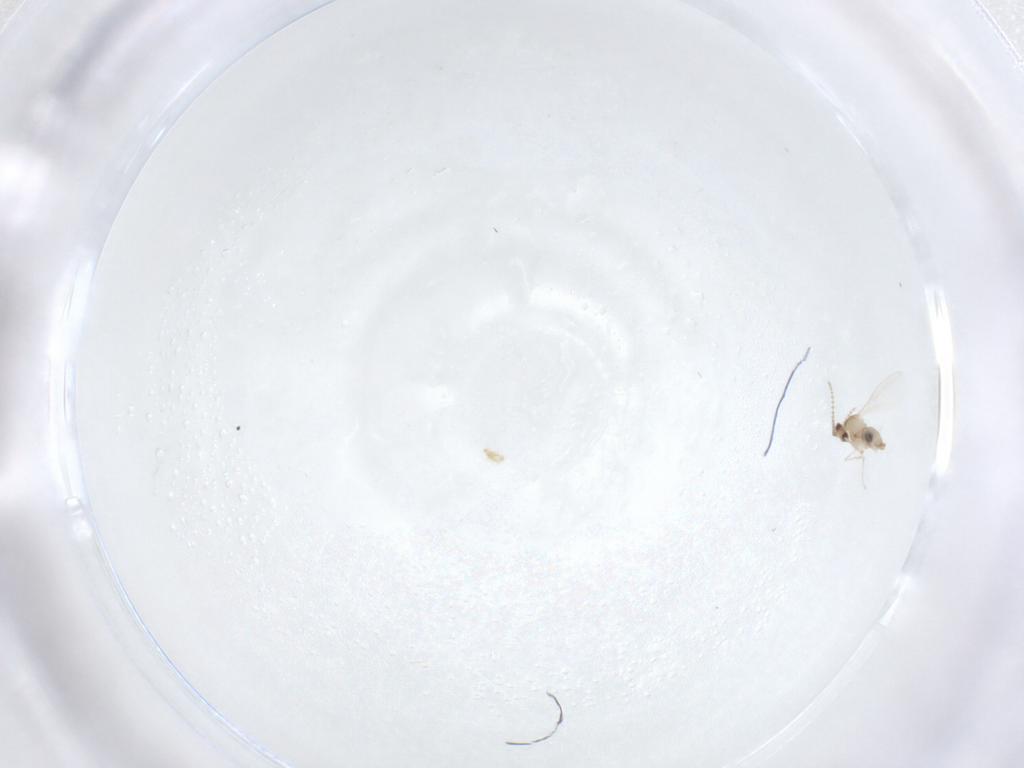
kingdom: Animalia
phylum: Arthropoda
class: Insecta
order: Diptera
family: Cecidomyiidae
